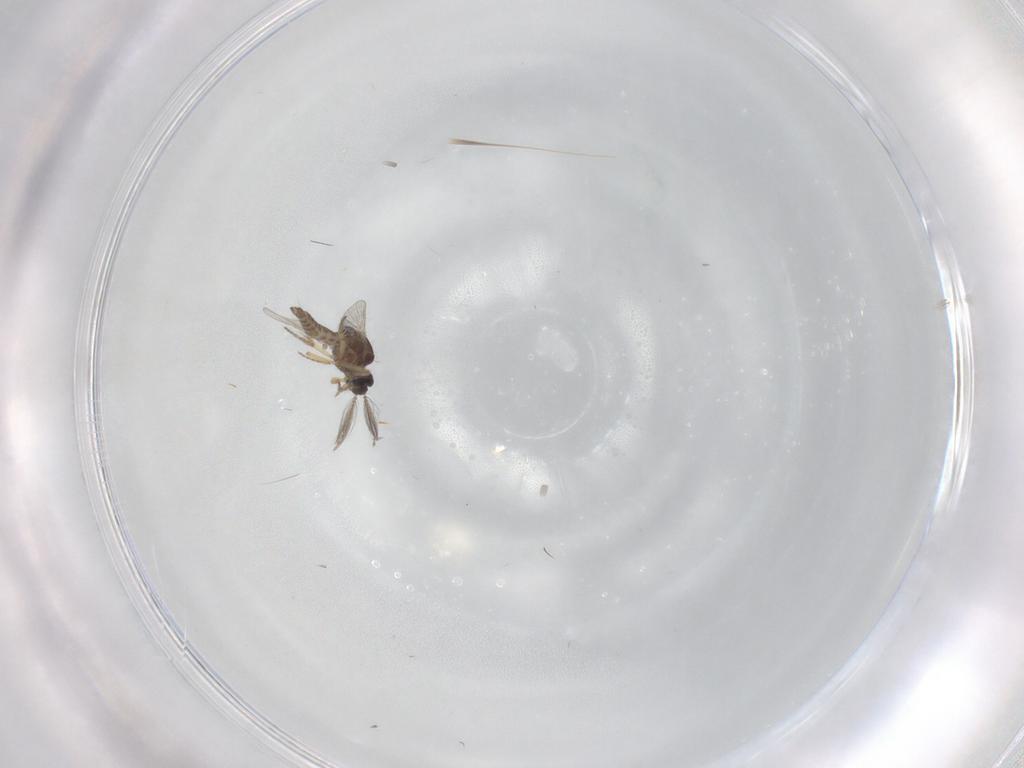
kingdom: Animalia
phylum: Arthropoda
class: Insecta
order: Diptera
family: Ceratopogonidae
